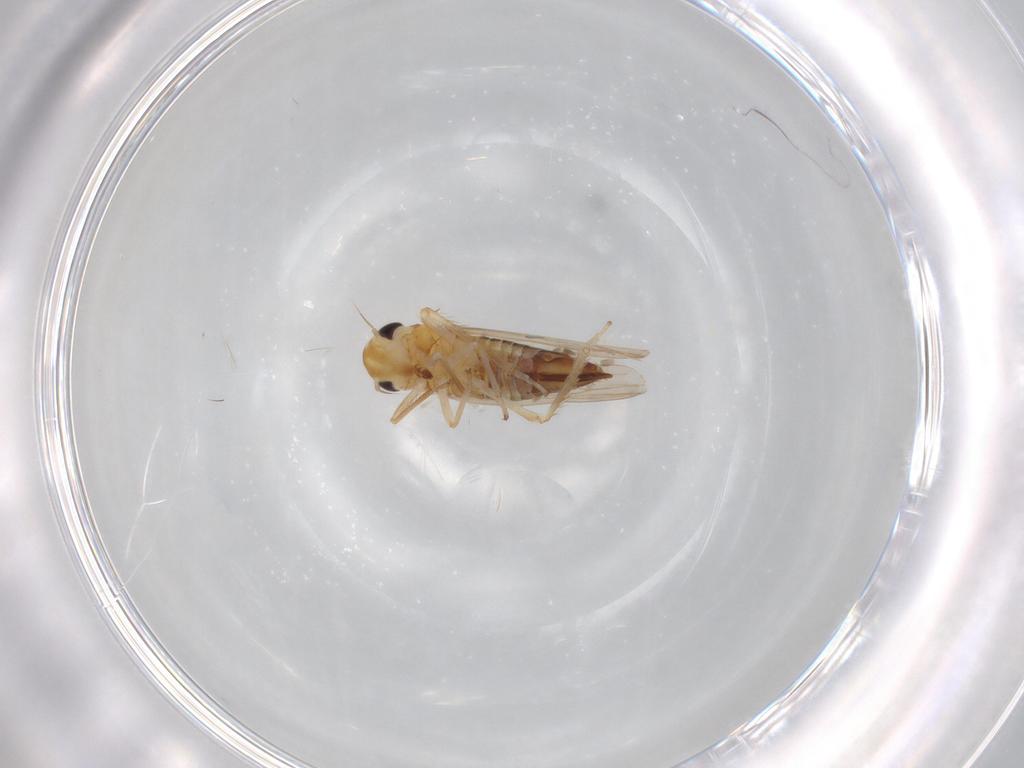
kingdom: Animalia
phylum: Arthropoda
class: Insecta
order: Hemiptera
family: Cicadellidae
